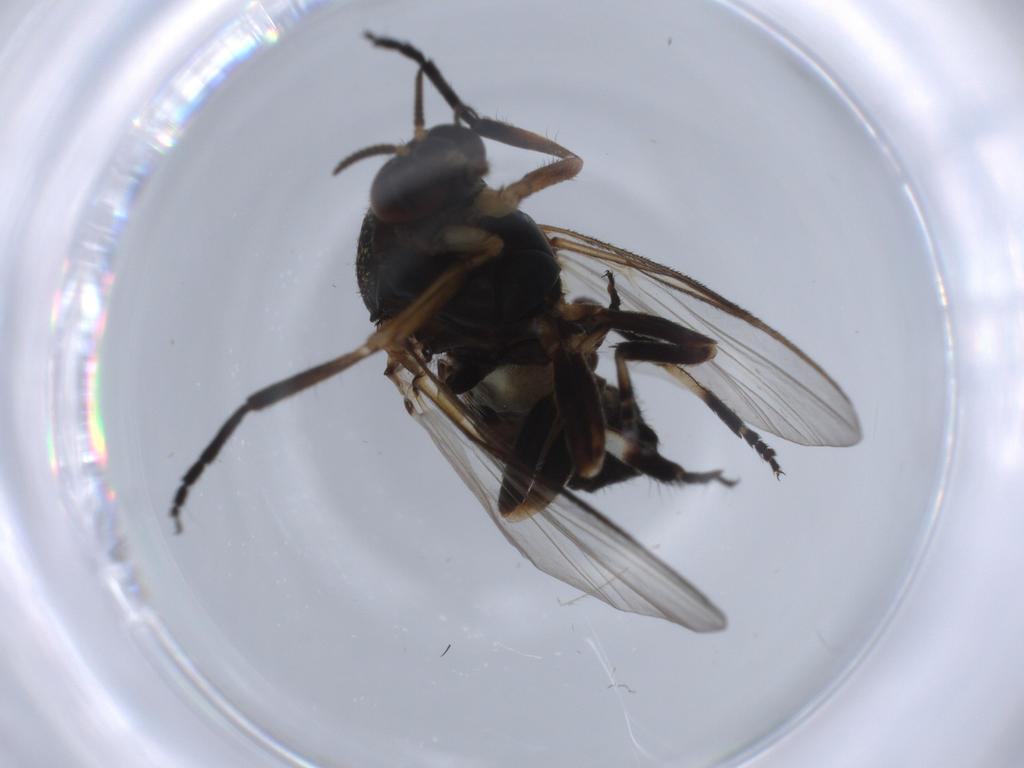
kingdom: Animalia
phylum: Arthropoda
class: Insecta
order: Diptera
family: Phoridae
